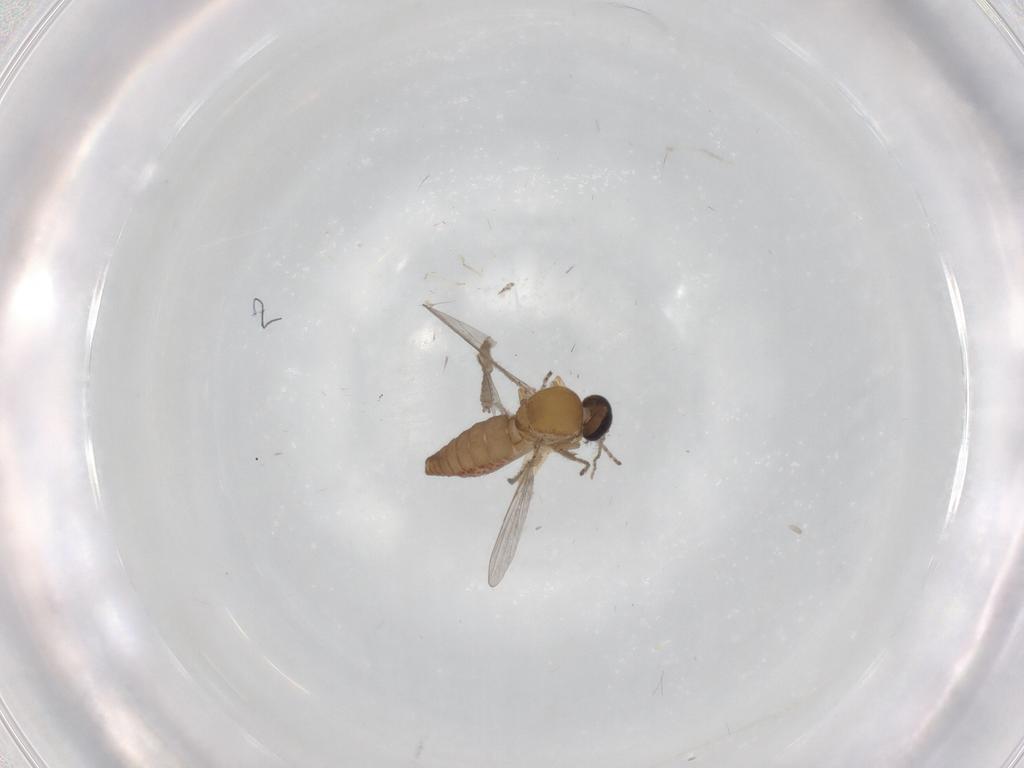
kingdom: Animalia
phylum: Arthropoda
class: Insecta
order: Diptera
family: Ceratopogonidae
